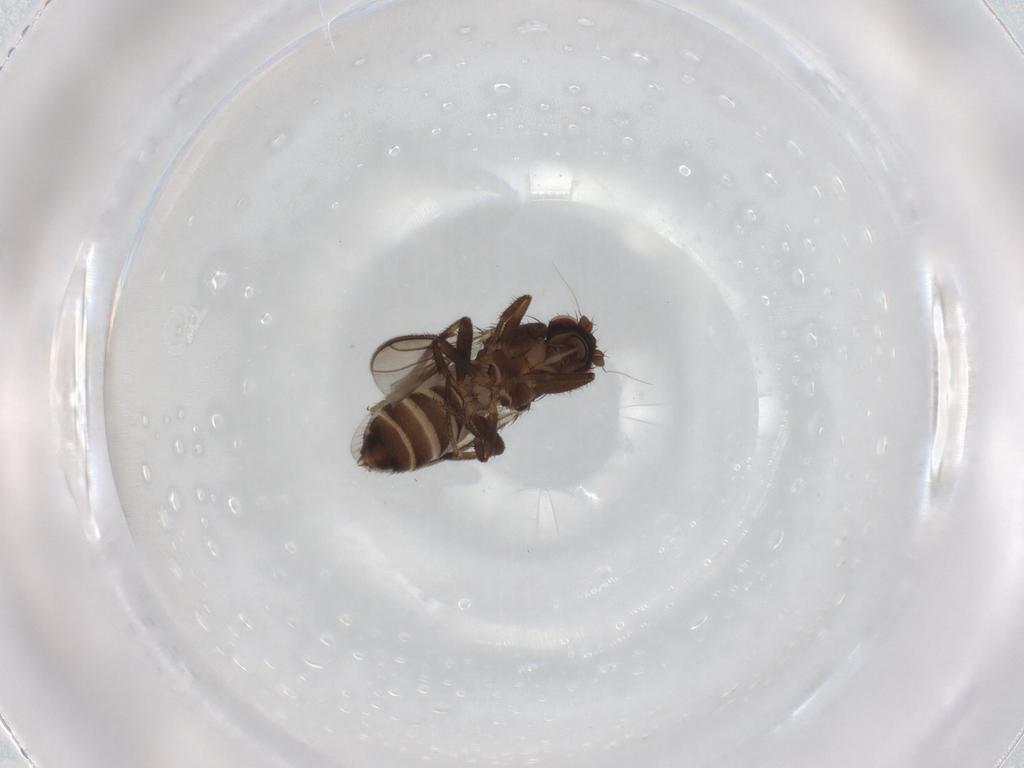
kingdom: Animalia
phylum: Arthropoda
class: Insecta
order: Diptera
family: Sphaeroceridae
